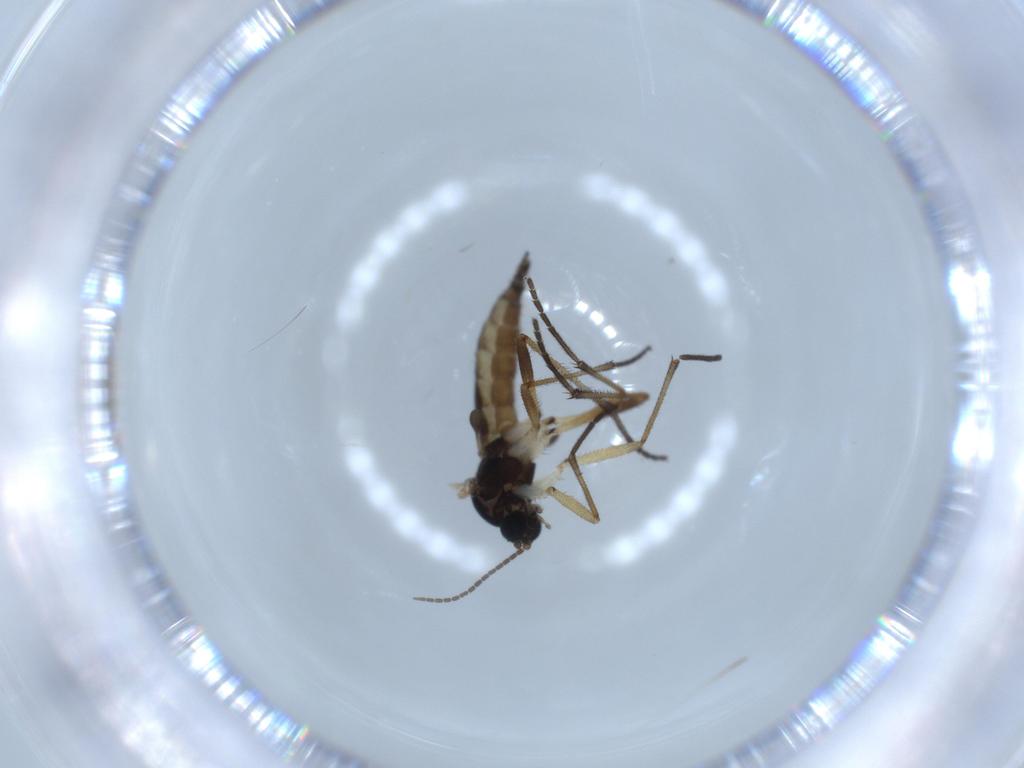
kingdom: Animalia
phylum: Arthropoda
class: Insecta
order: Diptera
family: Sciaridae
